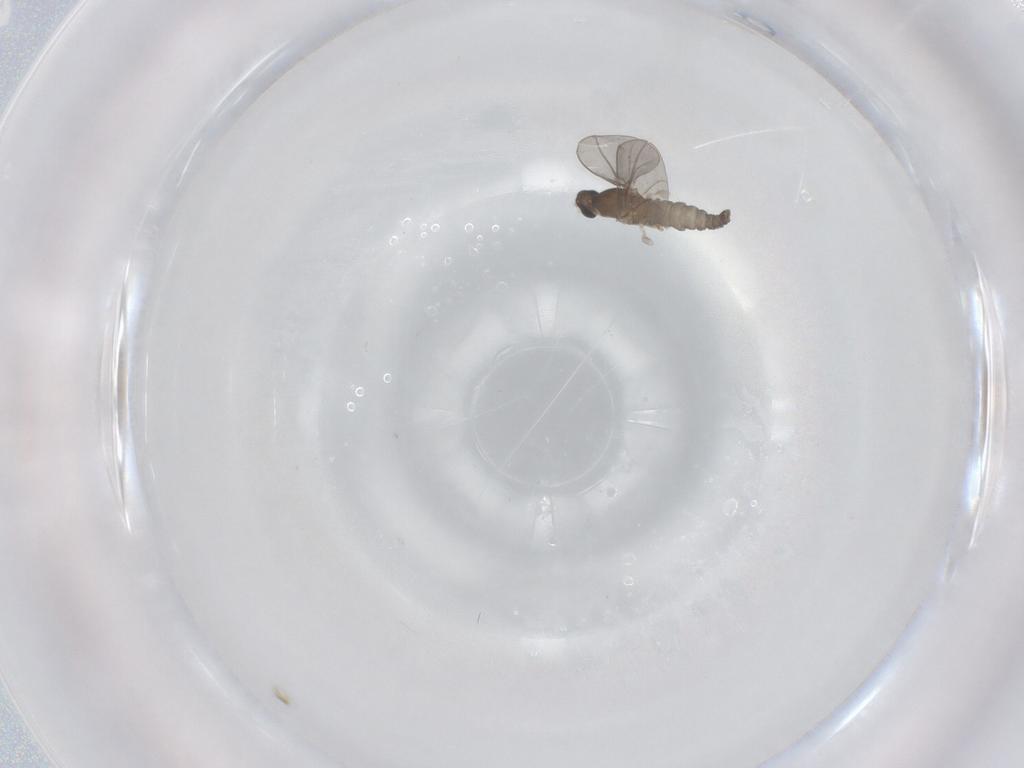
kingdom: Animalia
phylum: Arthropoda
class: Insecta
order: Diptera
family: Cecidomyiidae
